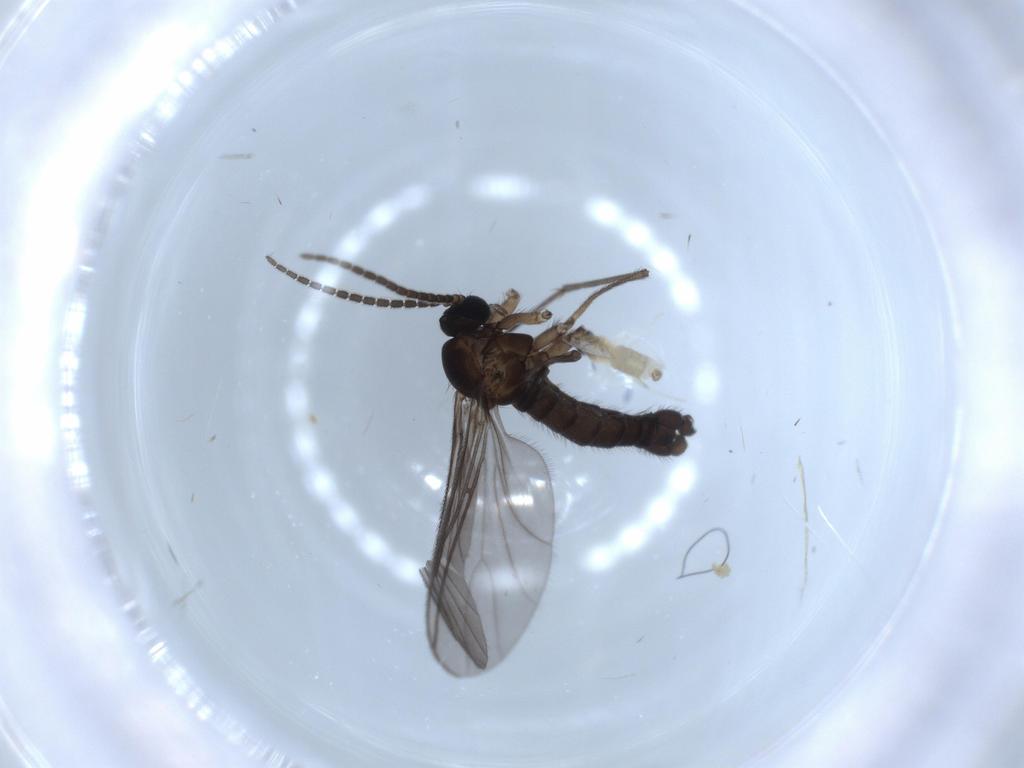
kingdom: Animalia
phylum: Arthropoda
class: Insecta
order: Diptera
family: Sciaridae
